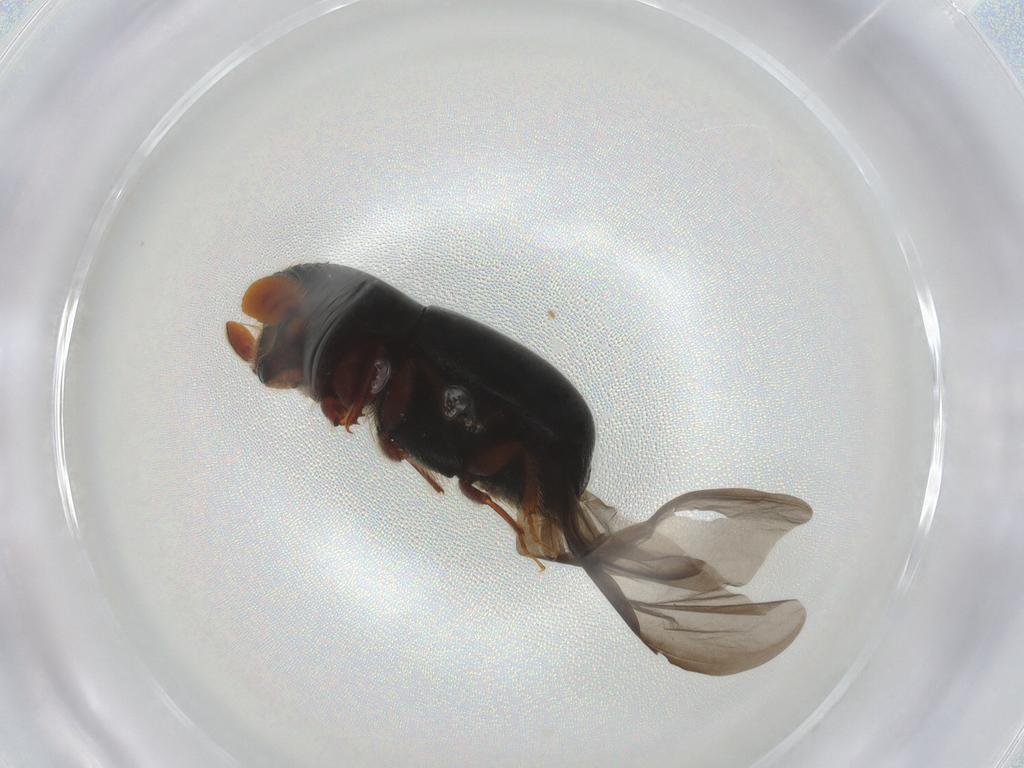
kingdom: Animalia
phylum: Arthropoda
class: Insecta
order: Coleoptera
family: Curculionidae
